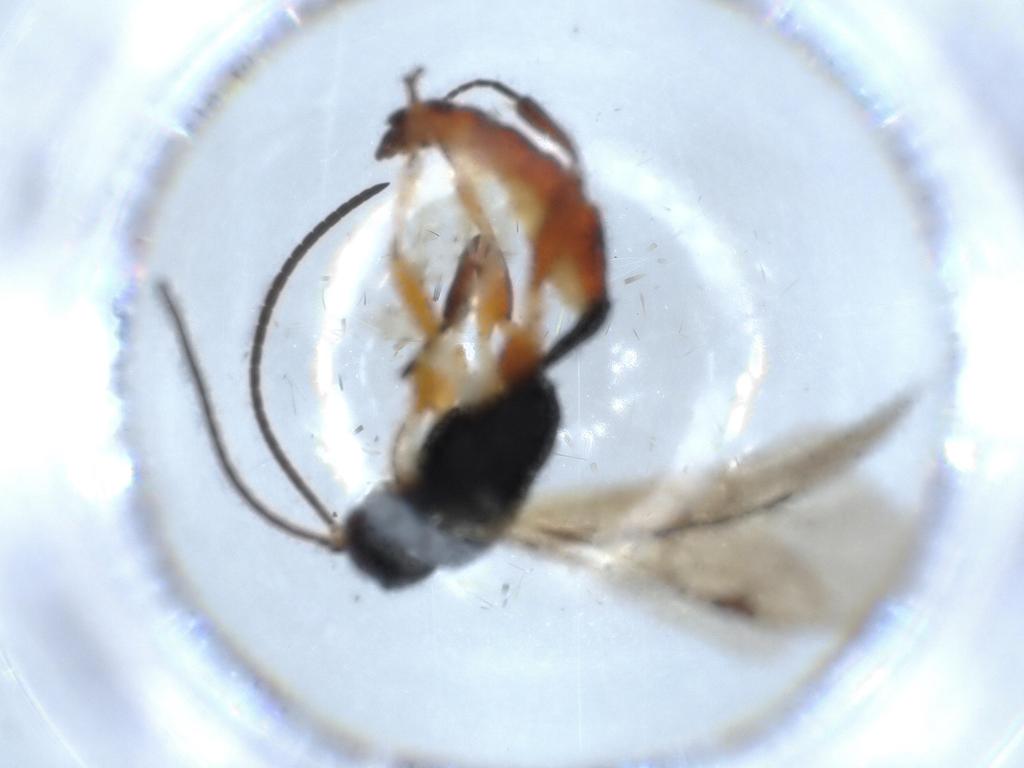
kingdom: Animalia
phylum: Arthropoda
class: Insecta
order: Hymenoptera
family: Ichneumonidae
